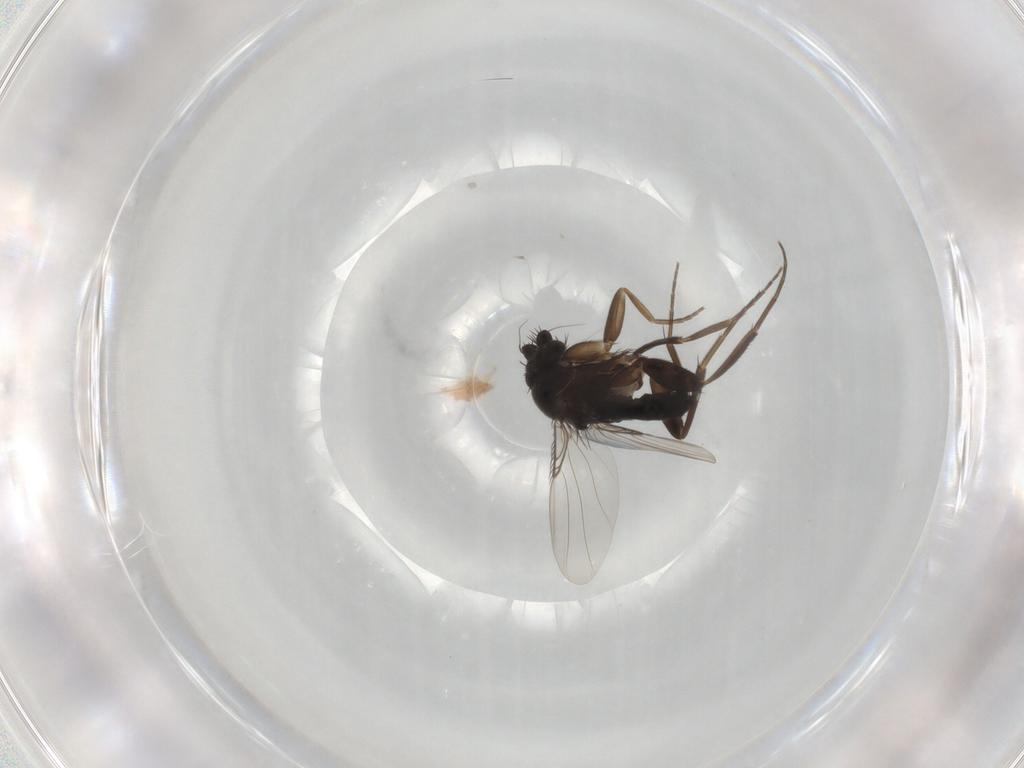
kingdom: Animalia
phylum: Arthropoda
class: Insecta
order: Diptera
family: Phoridae
